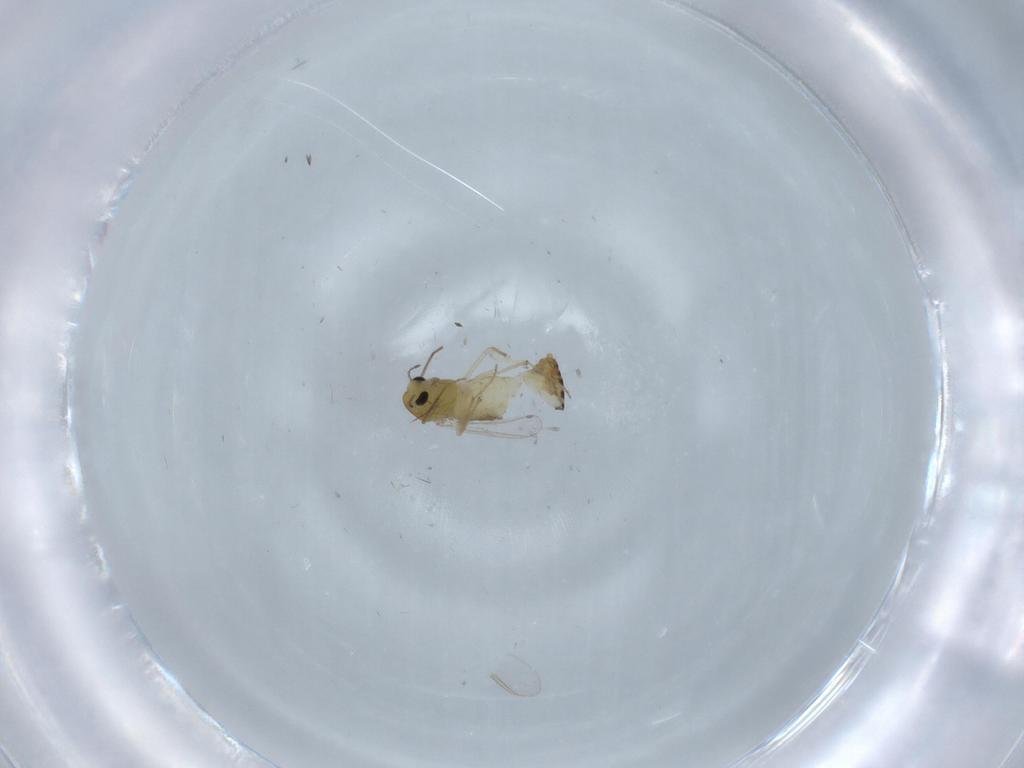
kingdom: Animalia
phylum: Arthropoda
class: Insecta
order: Diptera
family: Chironomidae
